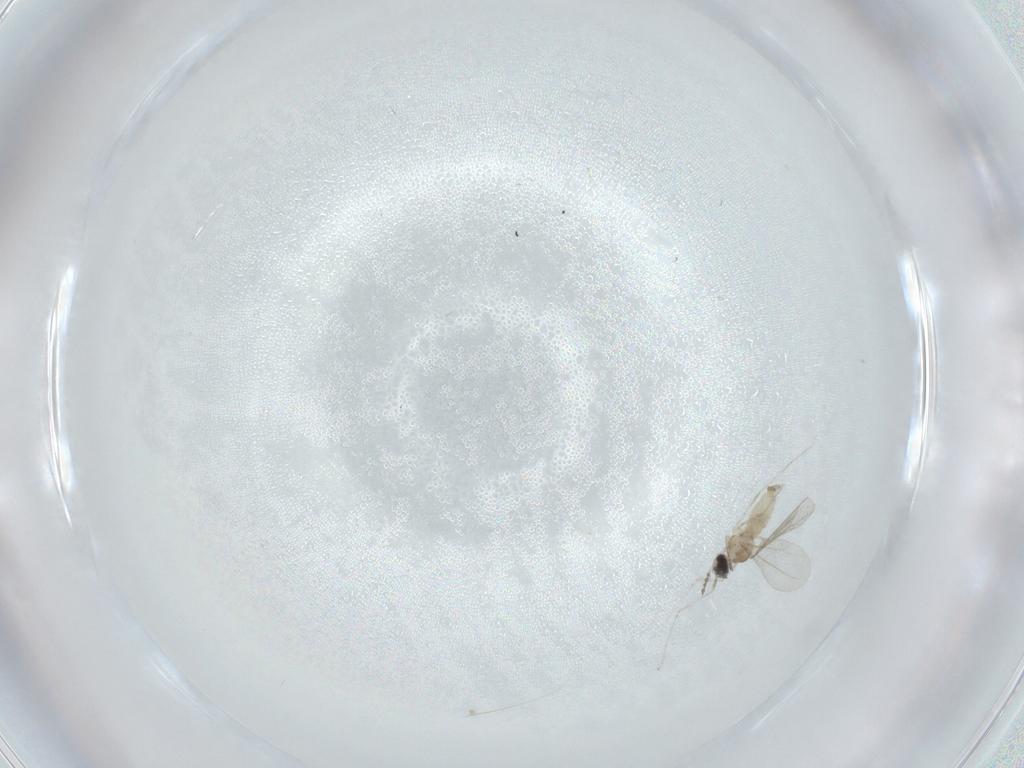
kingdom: Animalia
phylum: Arthropoda
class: Insecta
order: Diptera
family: Cecidomyiidae
